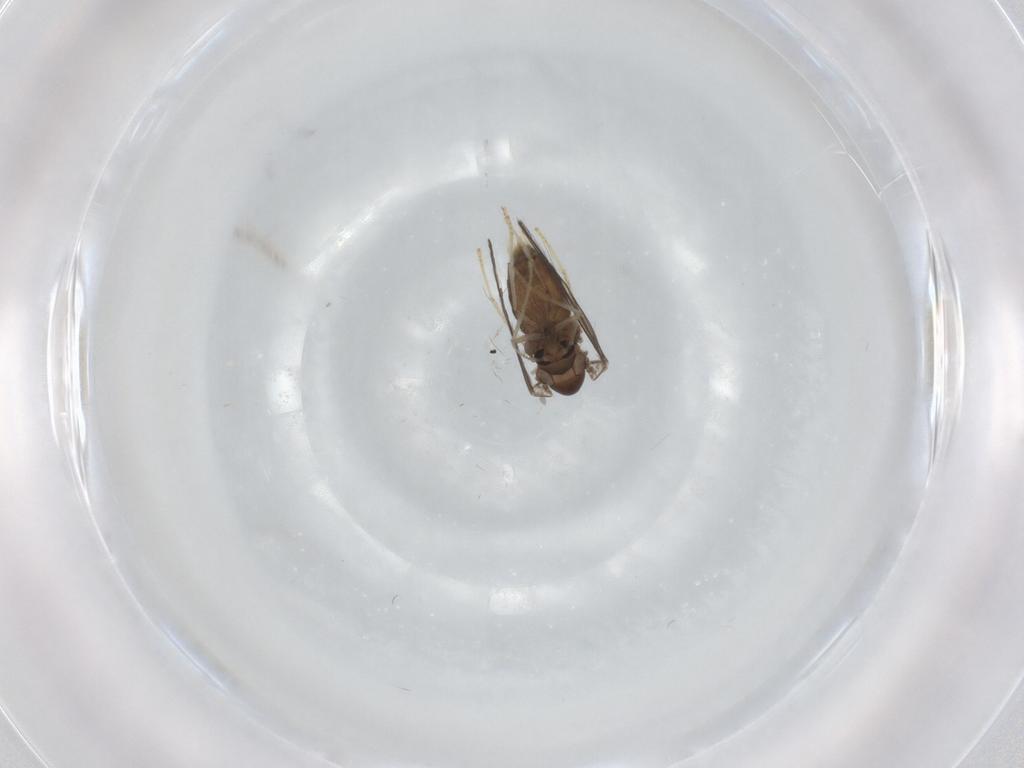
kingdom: Animalia
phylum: Arthropoda
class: Insecta
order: Diptera
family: Psychodidae
